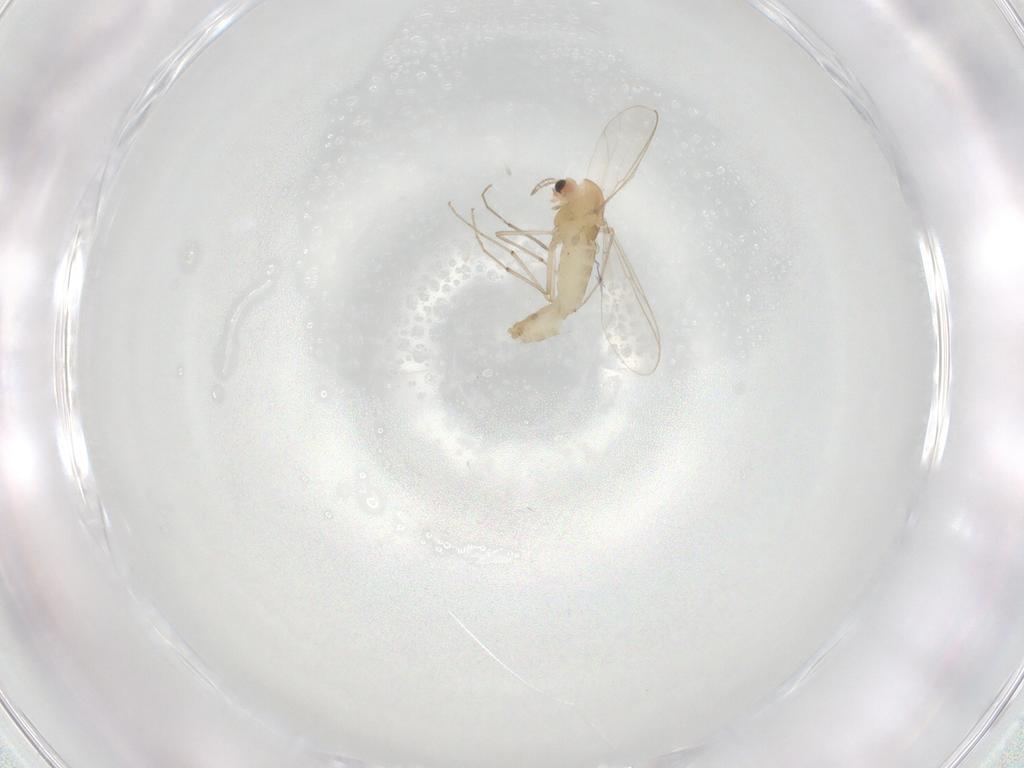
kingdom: Animalia
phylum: Arthropoda
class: Insecta
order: Diptera
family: Chironomidae
